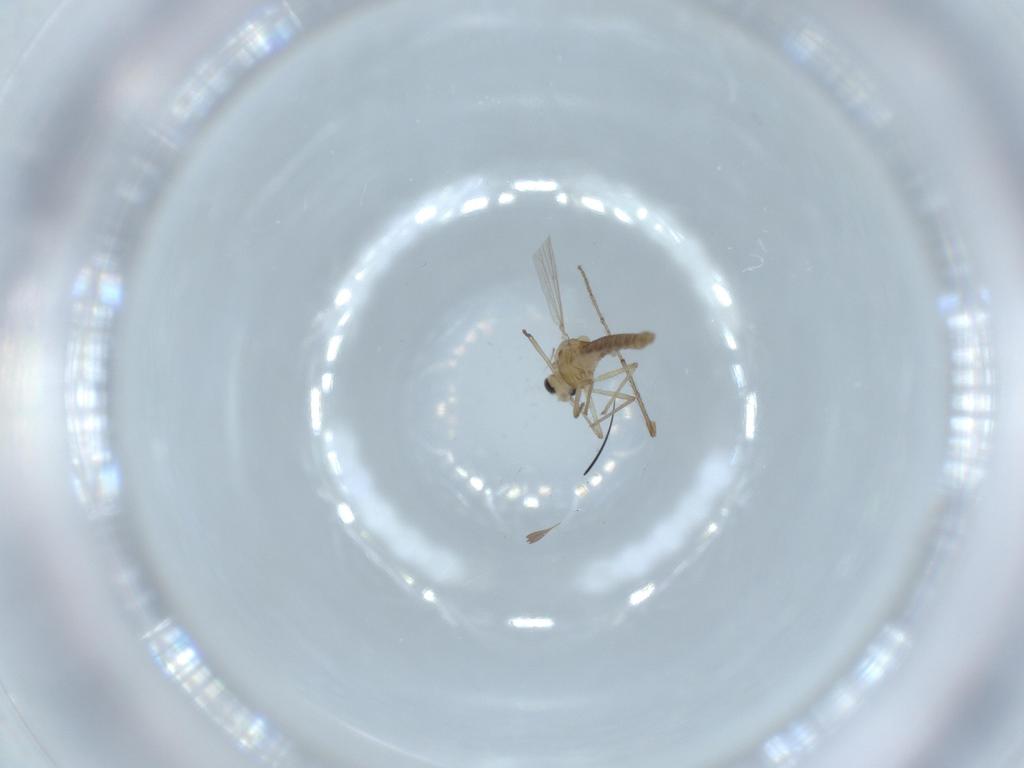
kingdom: Animalia
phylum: Arthropoda
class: Insecta
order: Diptera
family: Chironomidae
